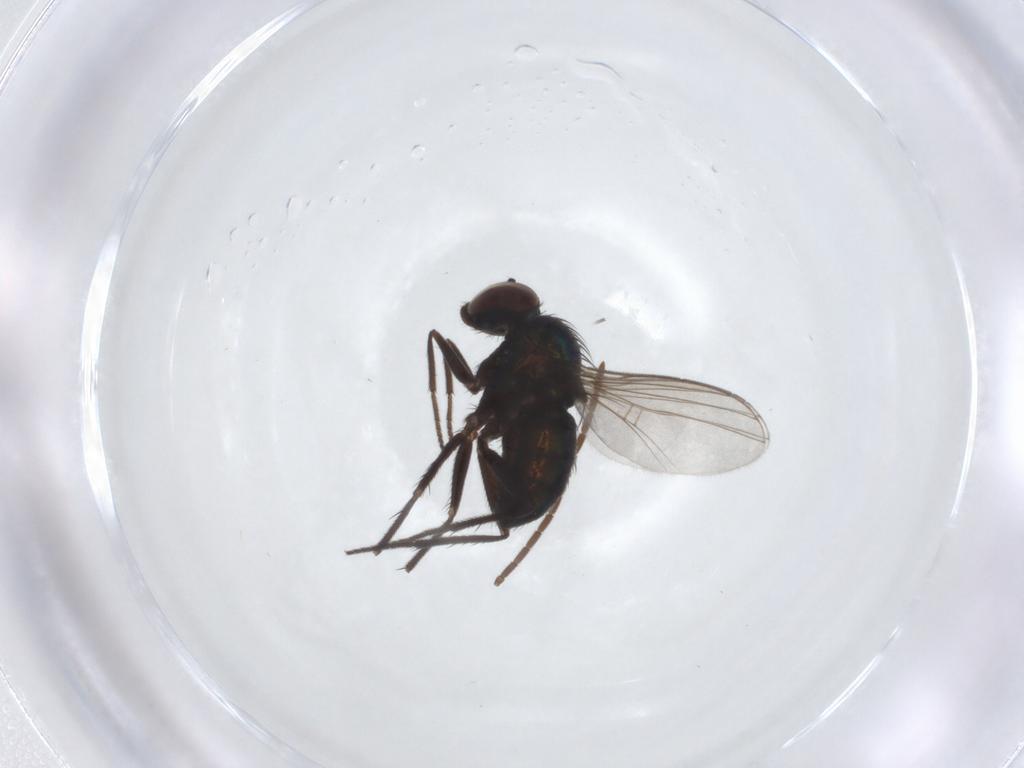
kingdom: Animalia
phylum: Arthropoda
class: Insecta
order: Diptera
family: Dolichopodidae
